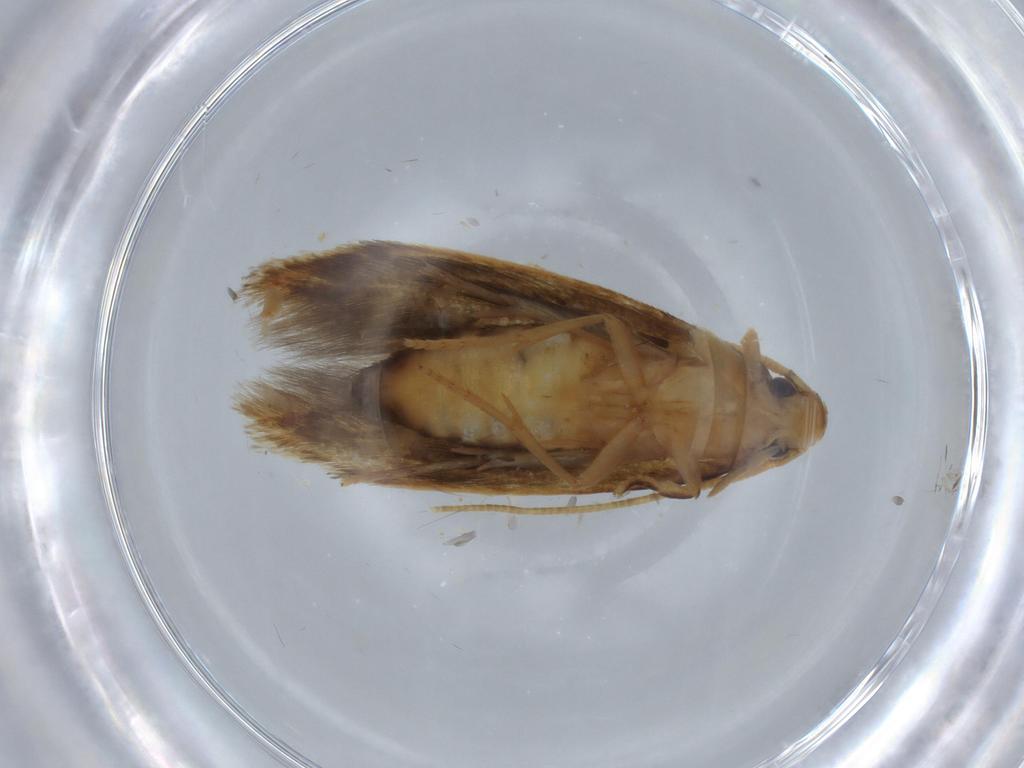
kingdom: Animalia
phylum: Arthropoda
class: Insecta
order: Lepidoptera
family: Tineidae
